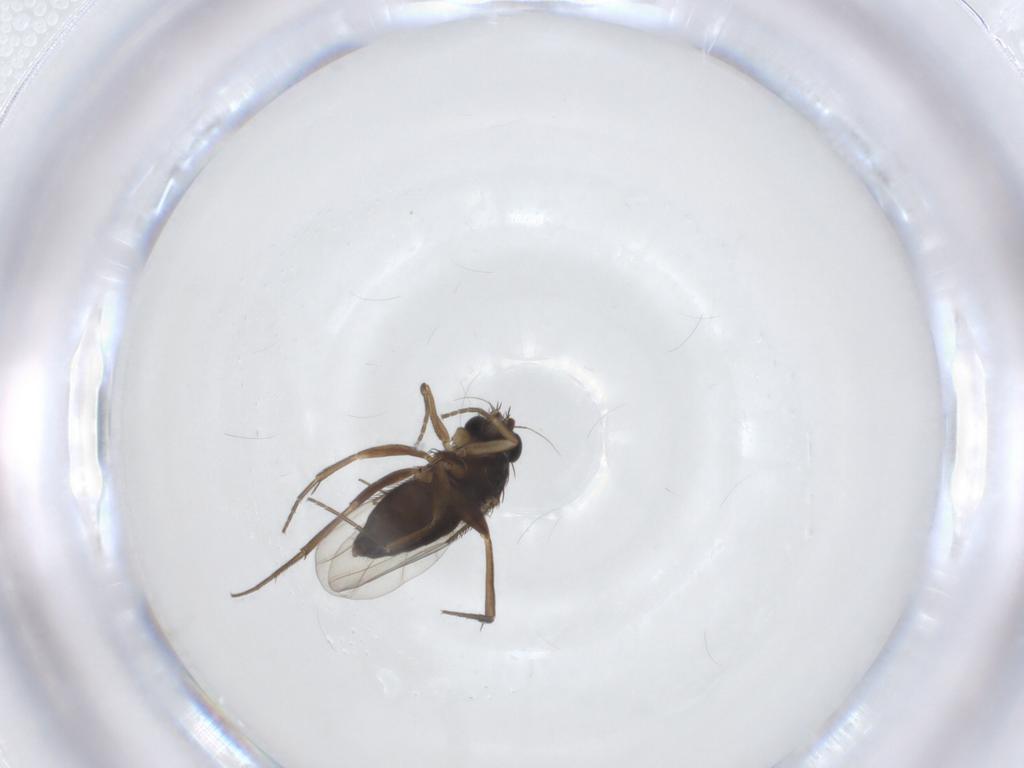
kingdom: Animalia
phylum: Arthropoda
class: Insecta
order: Diptera
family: Phoridae
